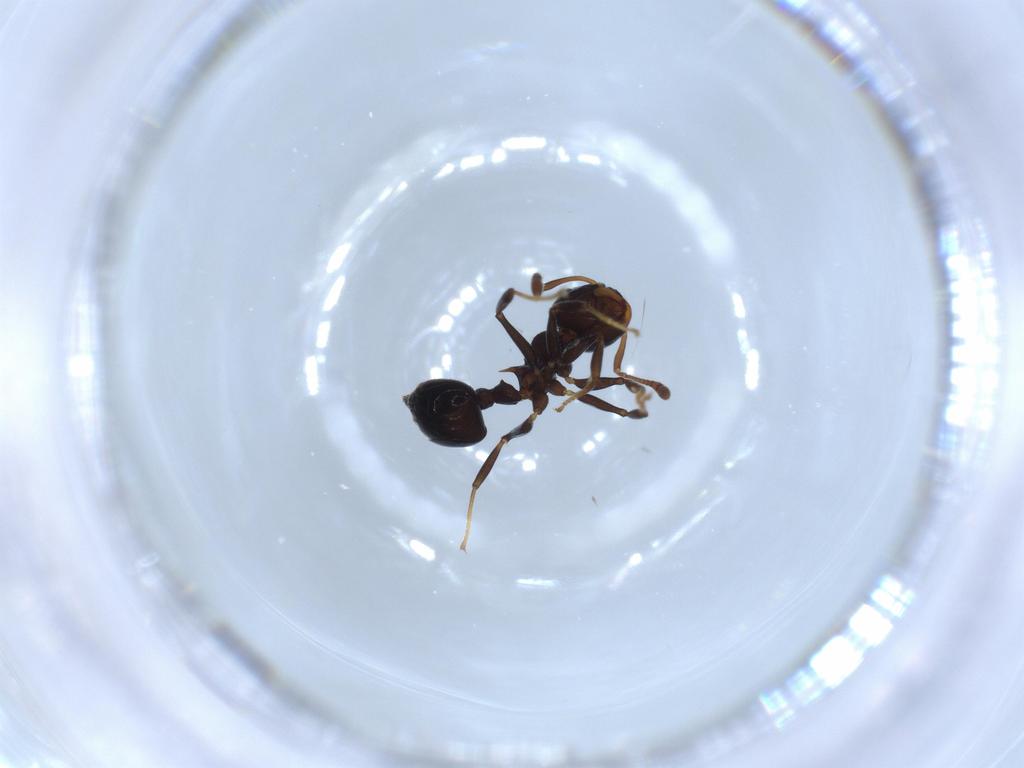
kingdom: Animalia
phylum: Arthropoda
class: Insecta
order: Hymenoptera
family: Formicidae
